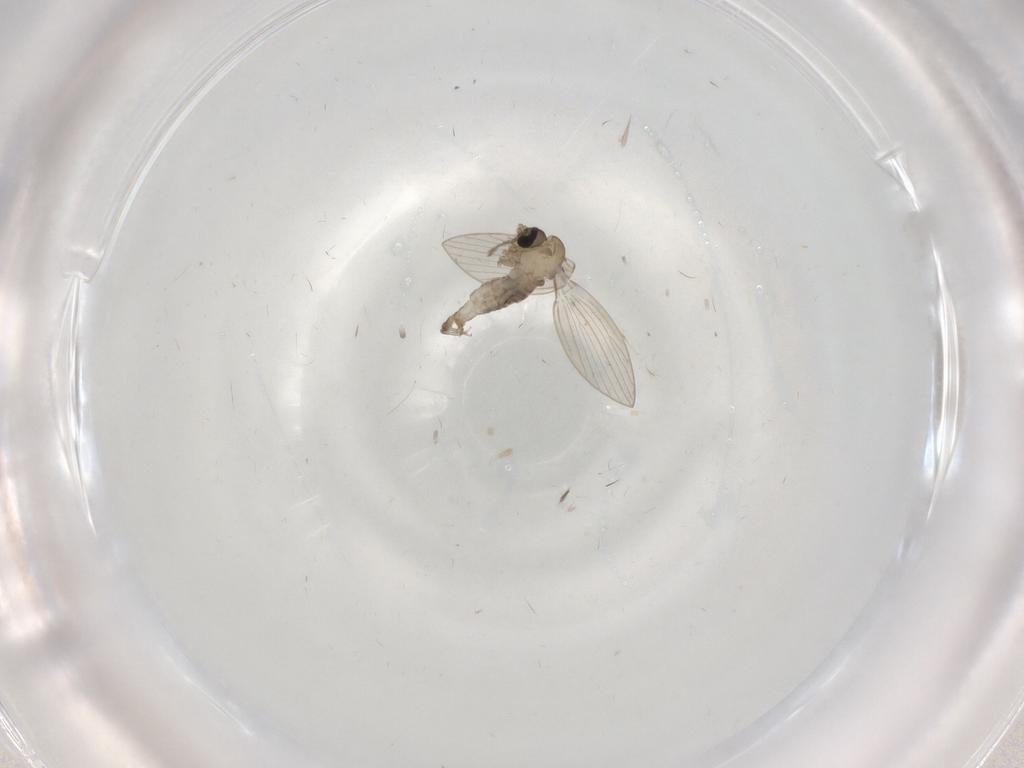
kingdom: Animalia
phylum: Arthropoda
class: Insecta
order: Diptera
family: Psychodidae
